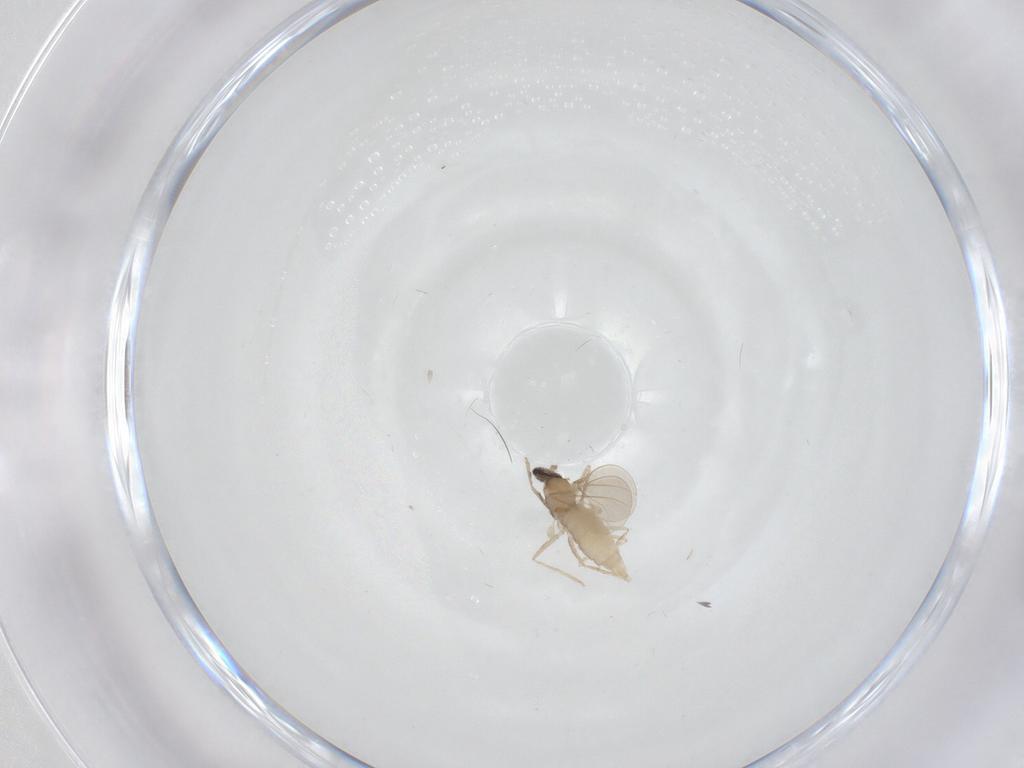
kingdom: Animalia
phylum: Arthropoda
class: Insecta
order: Diptera
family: Cecidomyiidae
